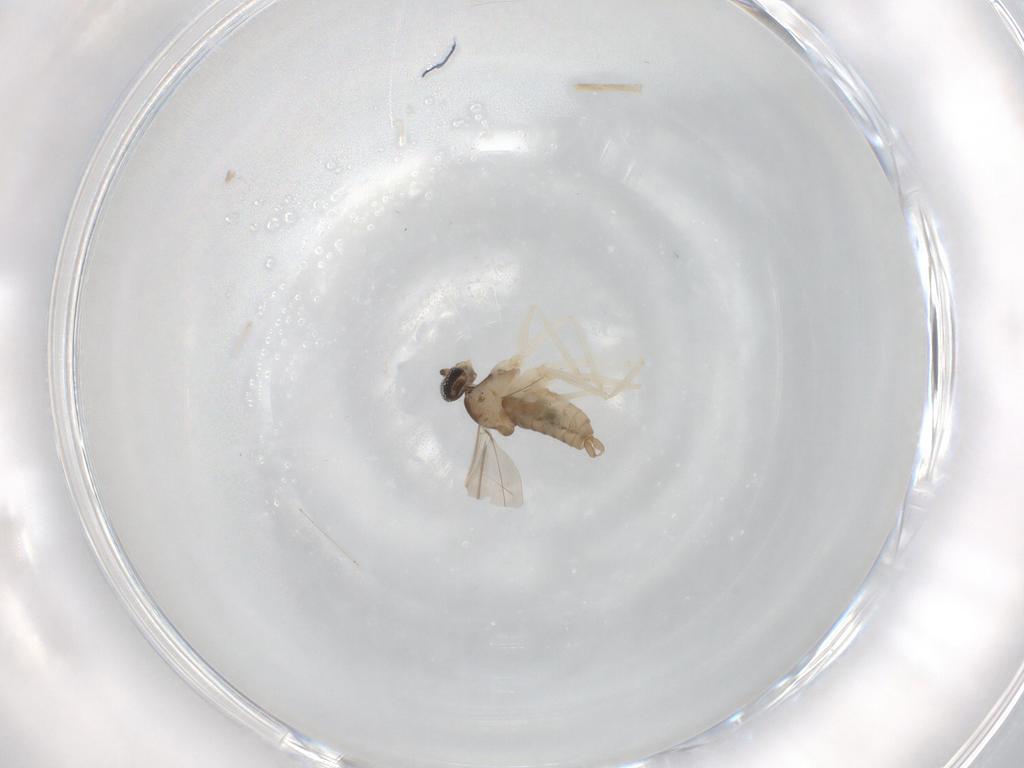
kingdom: Animalia
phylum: Arthropoda
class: Insecta
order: Diptera
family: Cecidomyiidae
